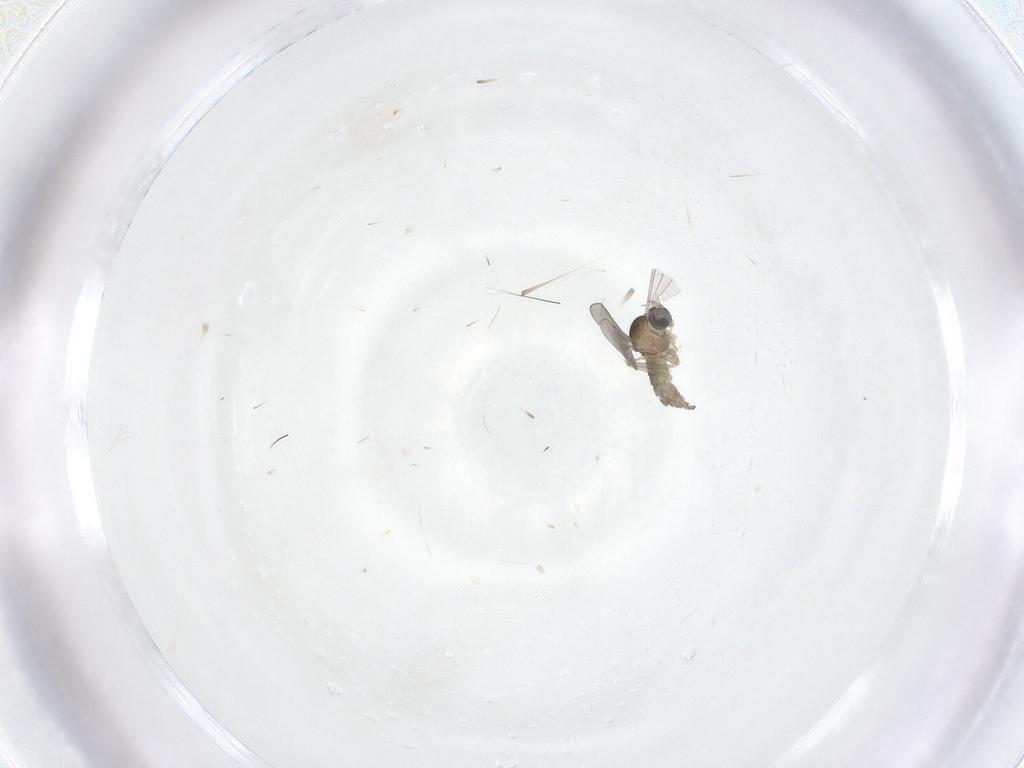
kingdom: Animalia
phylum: Arthropoda
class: Insecta
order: Diptera
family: Cecidomyiidae
